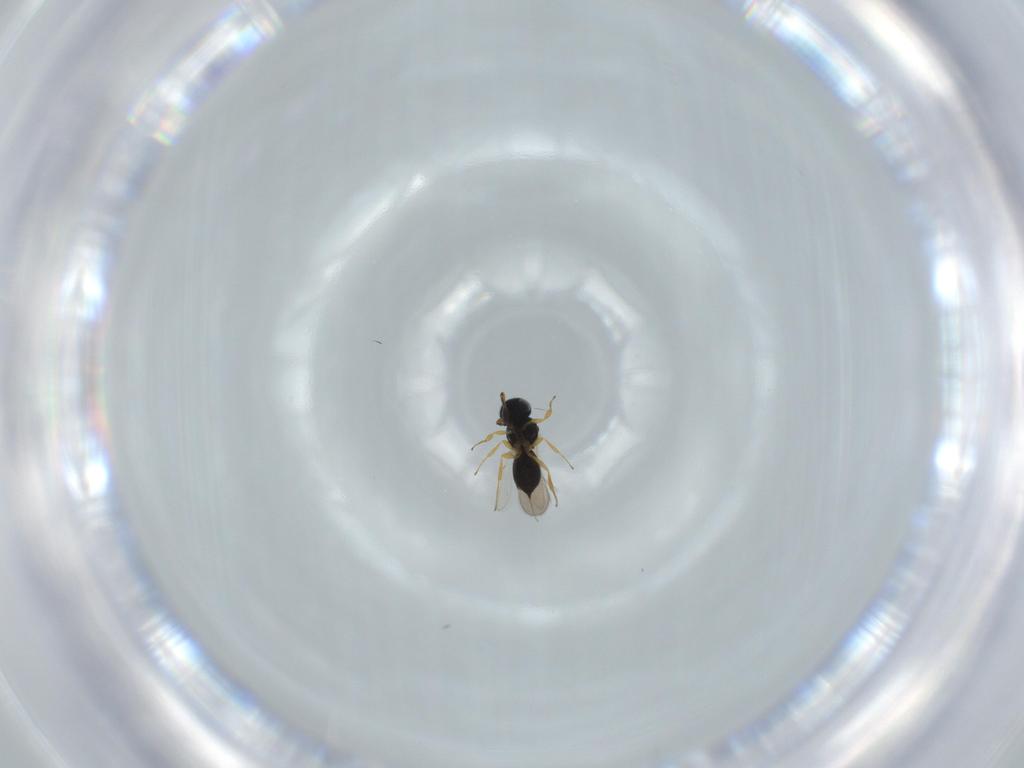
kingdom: Animalia
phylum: Arthropoda
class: Insecta
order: Hymenoptera
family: Scelionidae
